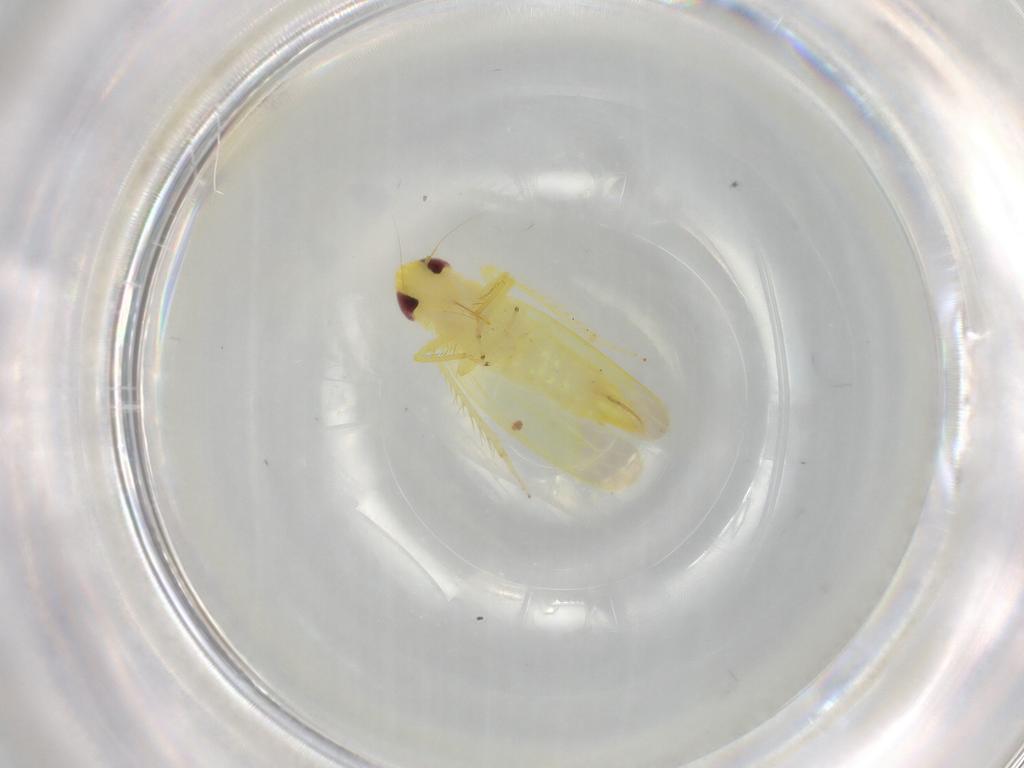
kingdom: Animalia
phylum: Arthropoda
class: Insecta
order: Hemiptera
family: Cicadellidae
